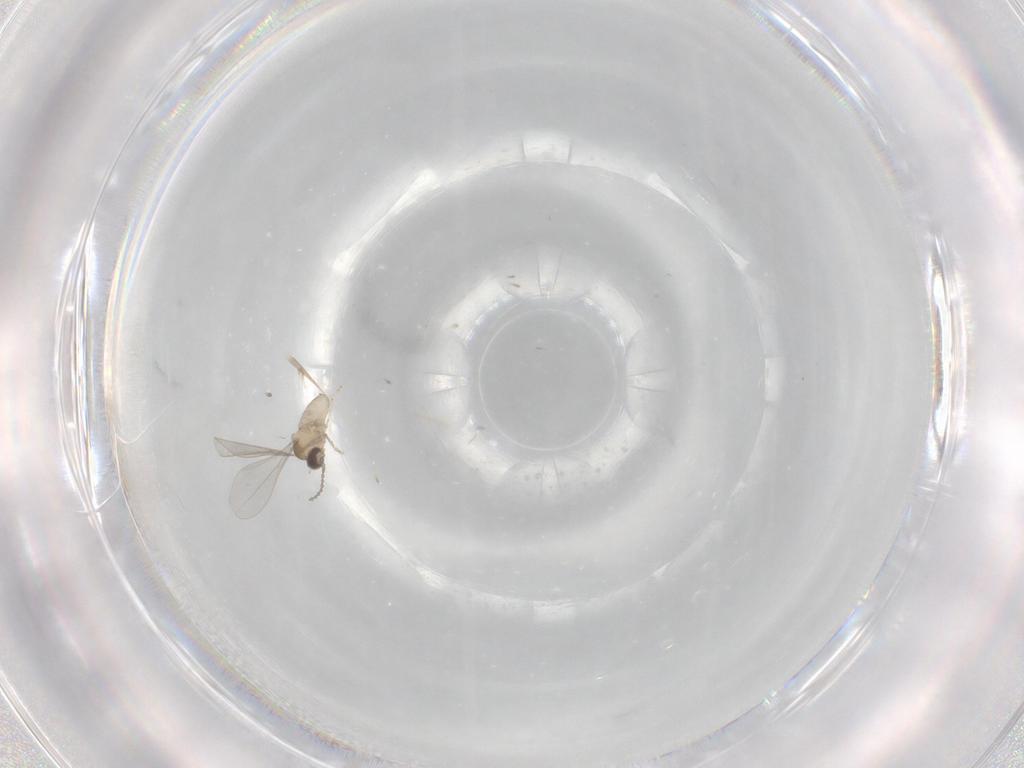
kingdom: Animalia
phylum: Arthropoda
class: Insecta
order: Diptera
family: Cecidomyiidae
